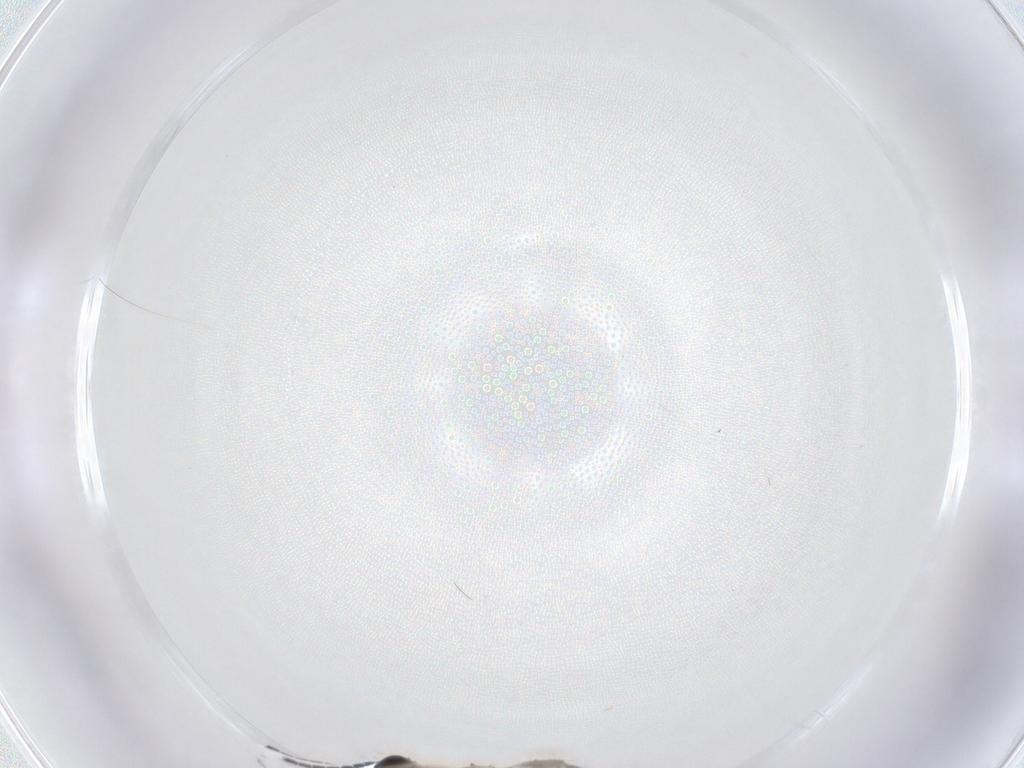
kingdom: Animalia
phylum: Arthropoda
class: Insecta
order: Diptera
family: Sciaridae
